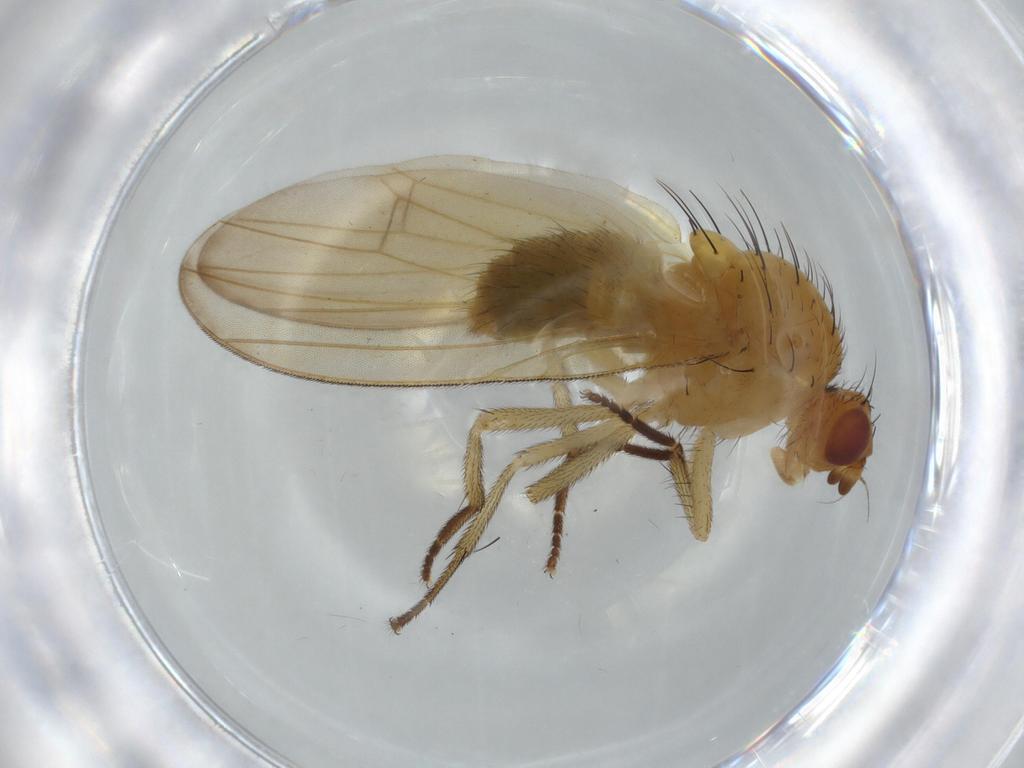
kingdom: Animalia
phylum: Arthropoda
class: Insecta
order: Diptera
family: Hybotidae
